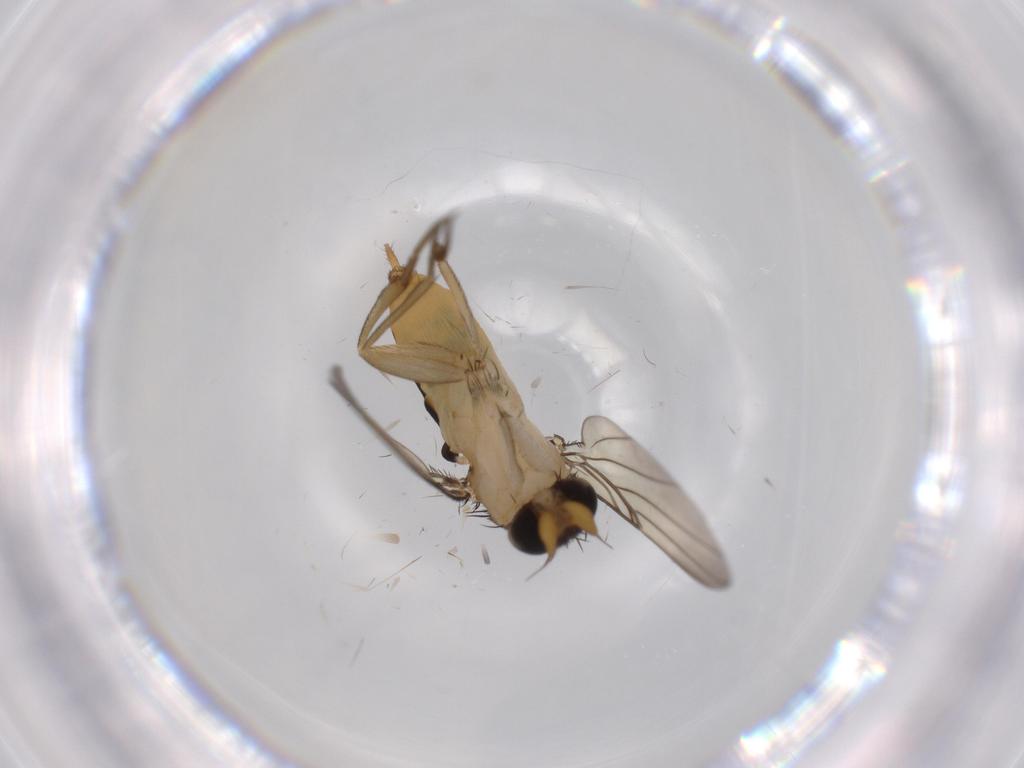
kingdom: Animalia
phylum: Arthropoda
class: Insecta
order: Diptera
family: Phoridae
